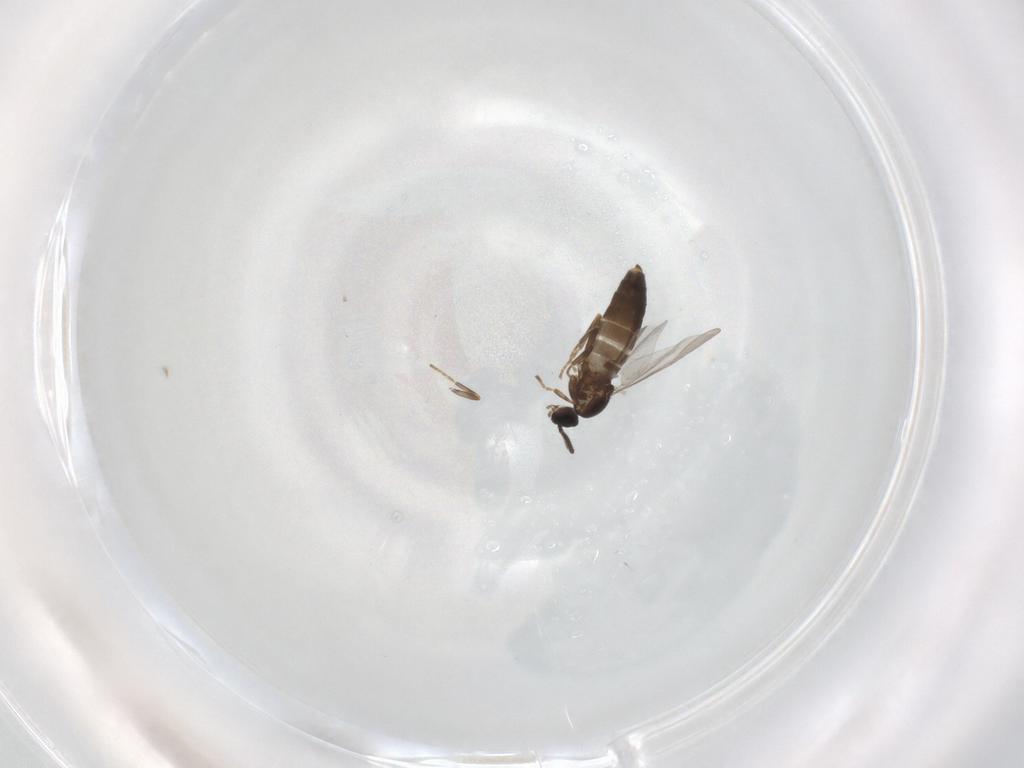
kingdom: Animalia
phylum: Arthropoda
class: Insecta
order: Diptera
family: Scatopsidae
